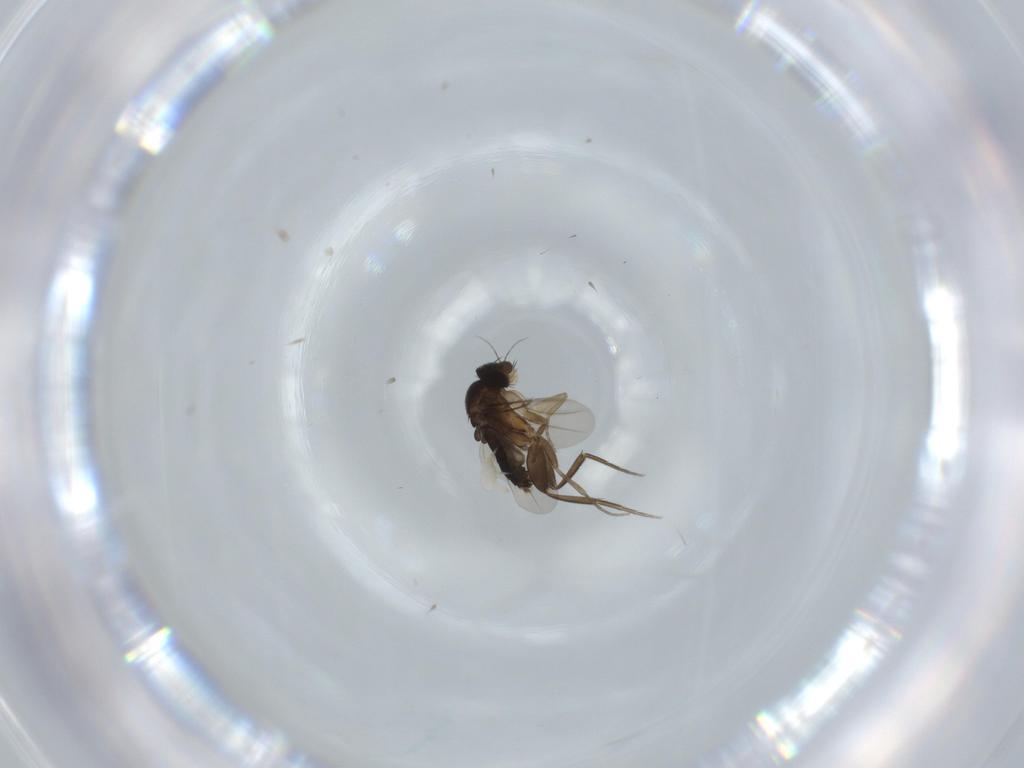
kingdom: Animalia
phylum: Arthropoda
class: Insecta
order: Diptera
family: Phoridae
